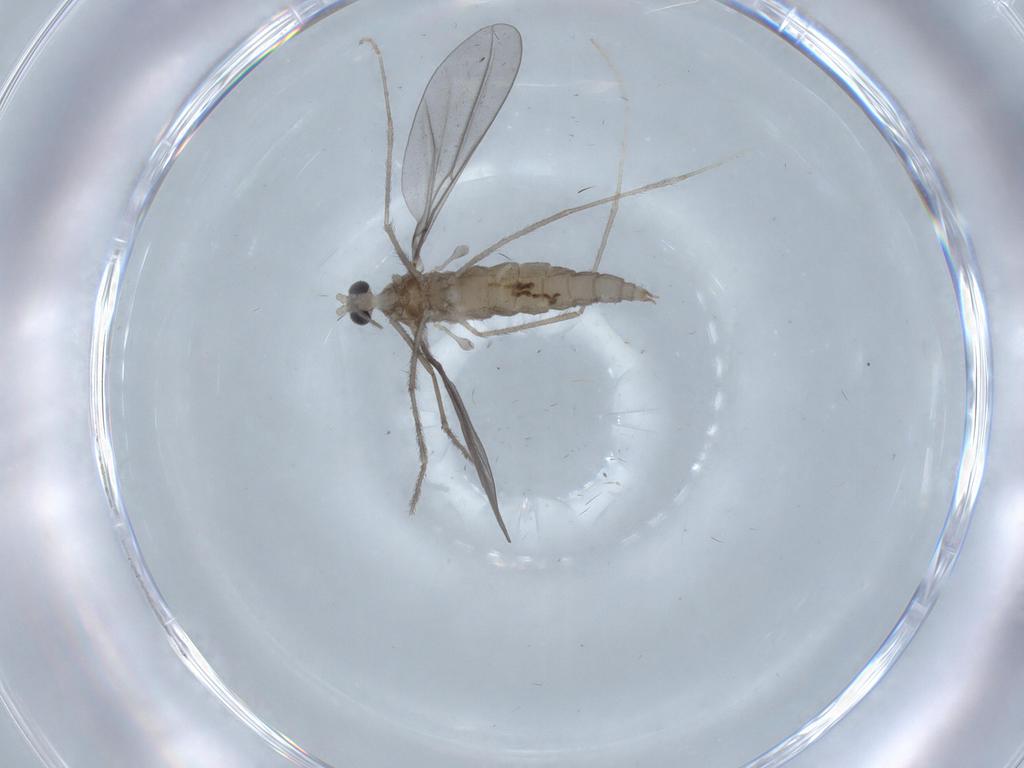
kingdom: Animalia
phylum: Arthropoda
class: Insecta
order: Diptera
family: Cecidomyiidae
